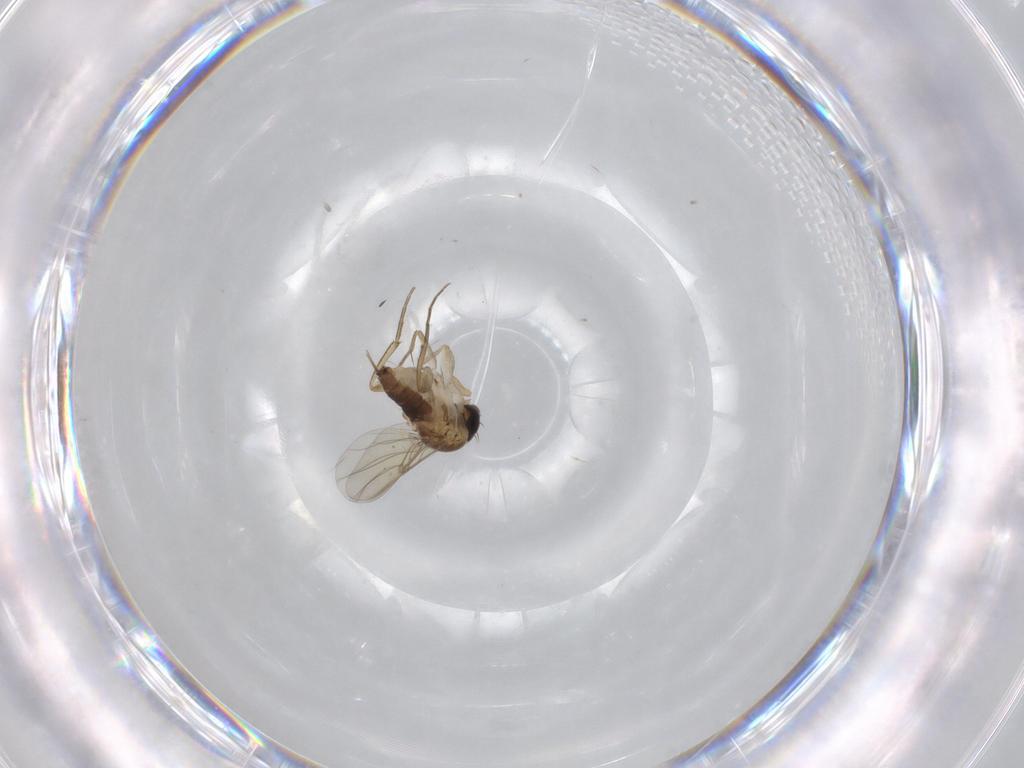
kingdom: Animalia
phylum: Arthropoda
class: Insecta
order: Diptera
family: Phoridae
